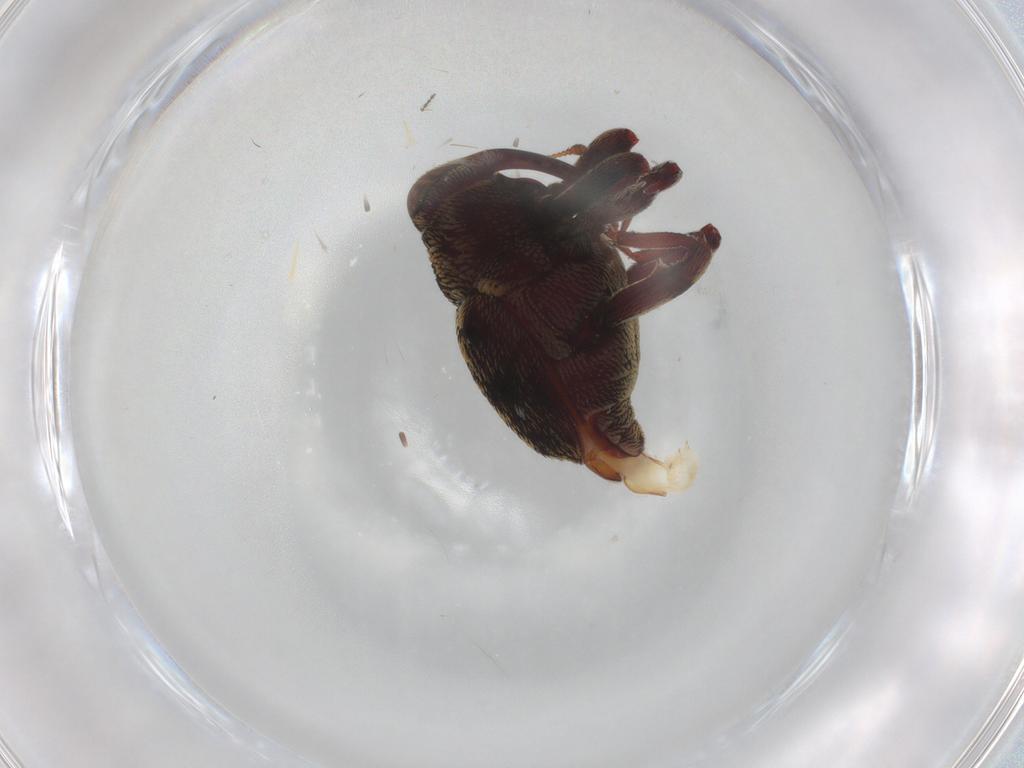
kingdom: Animalia
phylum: Arthropoda
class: Insecta
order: Coleoptera
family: Curculionidae
